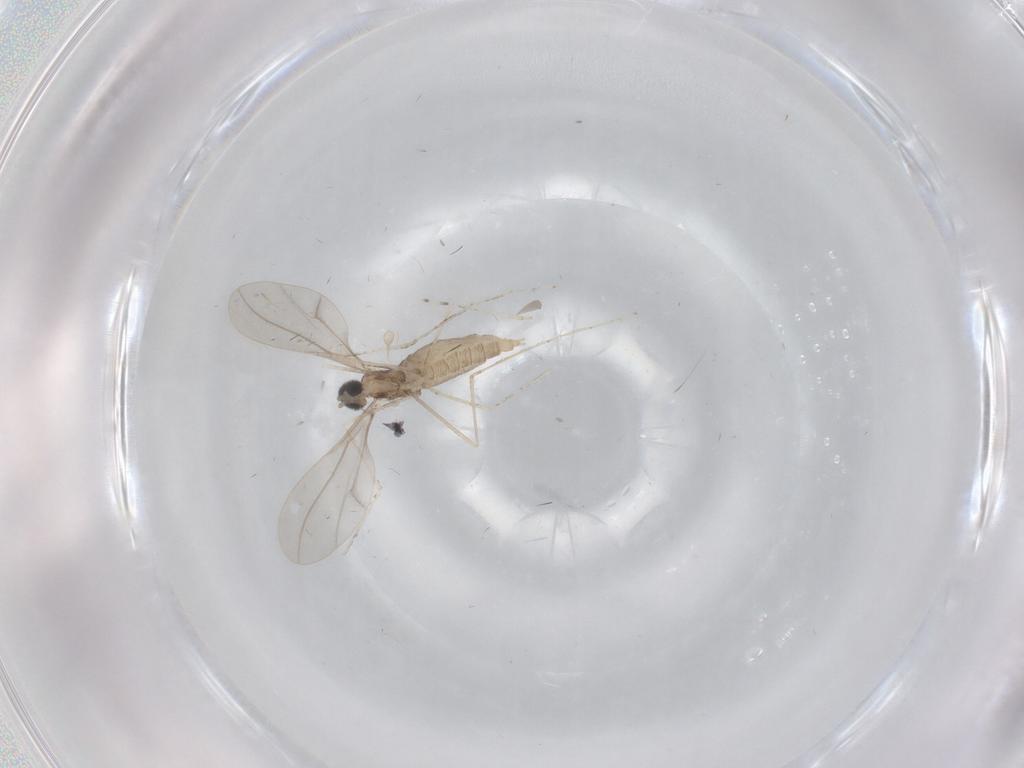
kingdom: Animalia
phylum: Arthropoda
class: Insecta
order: Diptera
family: Cecidomyiidae
